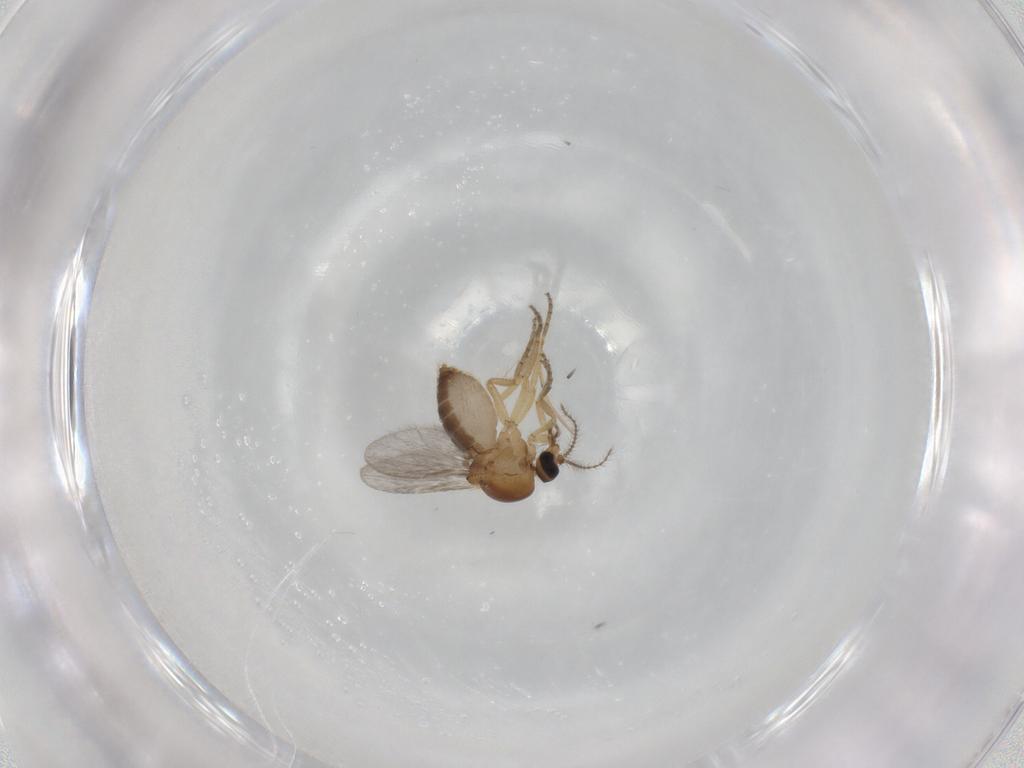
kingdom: Animalia
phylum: Arthropoda
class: Insecta
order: Diptera
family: Ceratopogonidae
